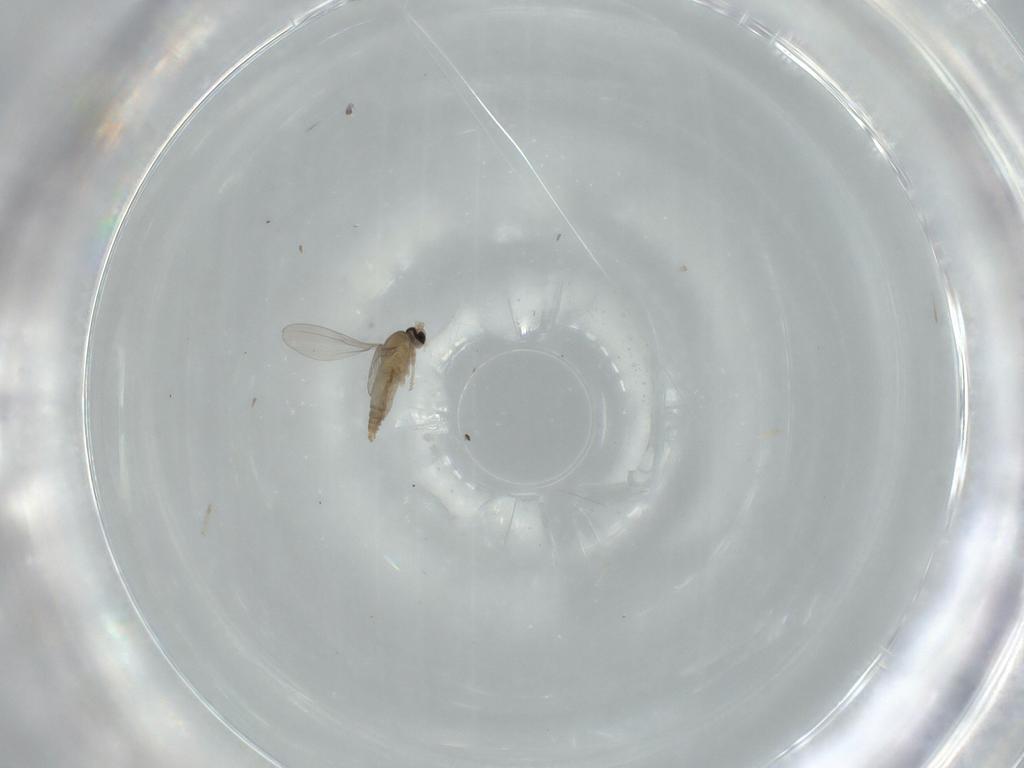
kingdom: Animalia
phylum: Arthropoda
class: Insecta
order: Diptera
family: Cecidomyiidae
